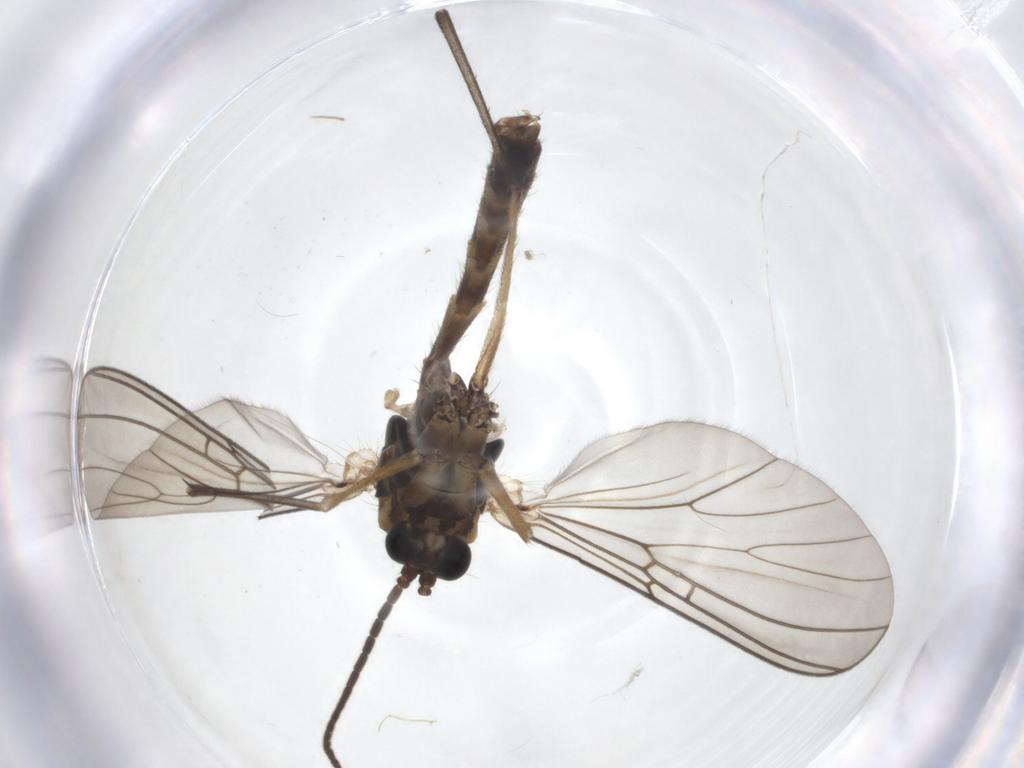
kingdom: Animalia
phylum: Arthropoda
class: Insecta
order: Diptera
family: Mycetophilidae
